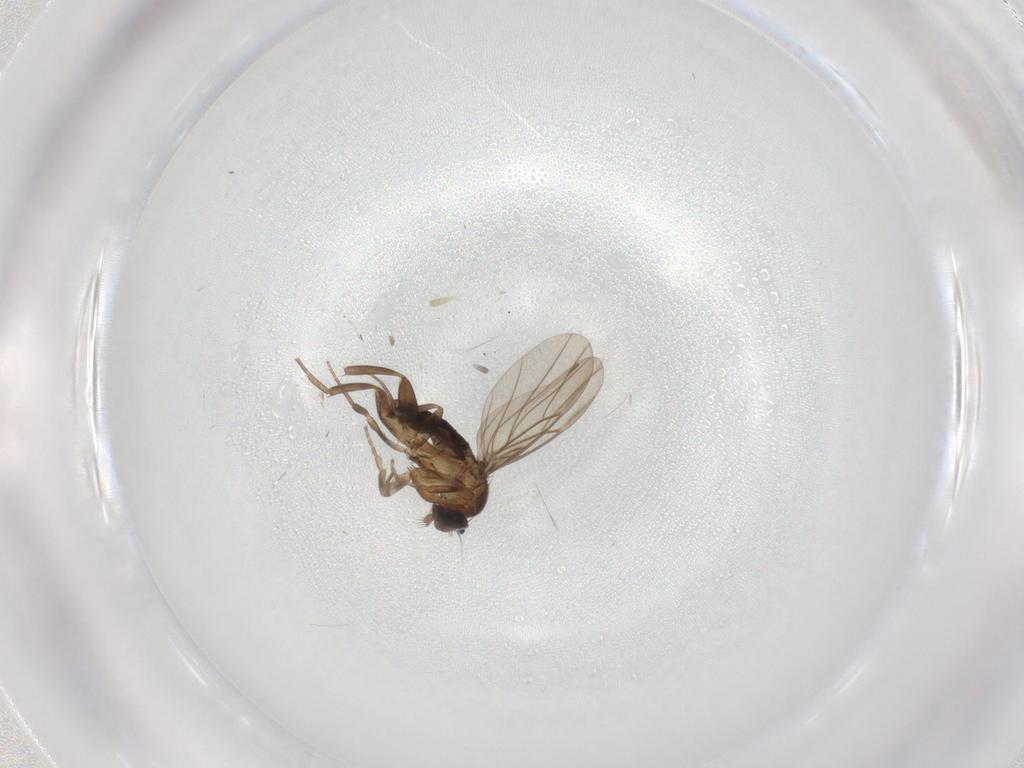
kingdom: Animalia
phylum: Arthropoda
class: Insecta
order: Diptera
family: Phoridae
